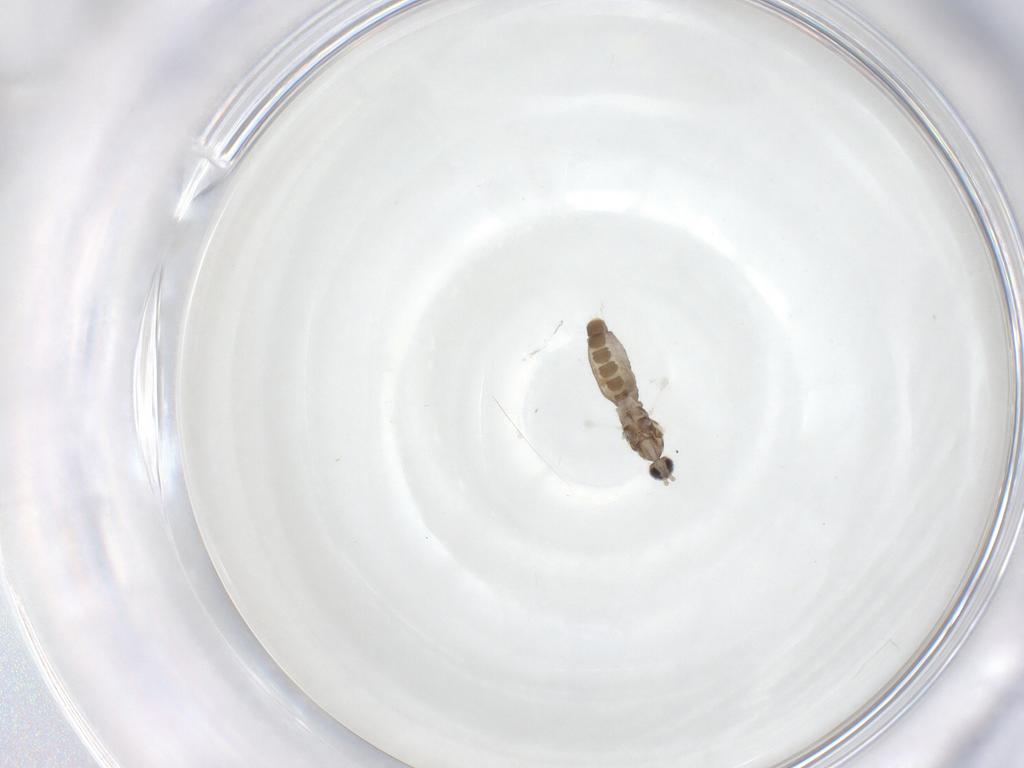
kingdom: Animalia
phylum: Arthropoda
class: Insecta
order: Diptera
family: Cecidomyiidae
